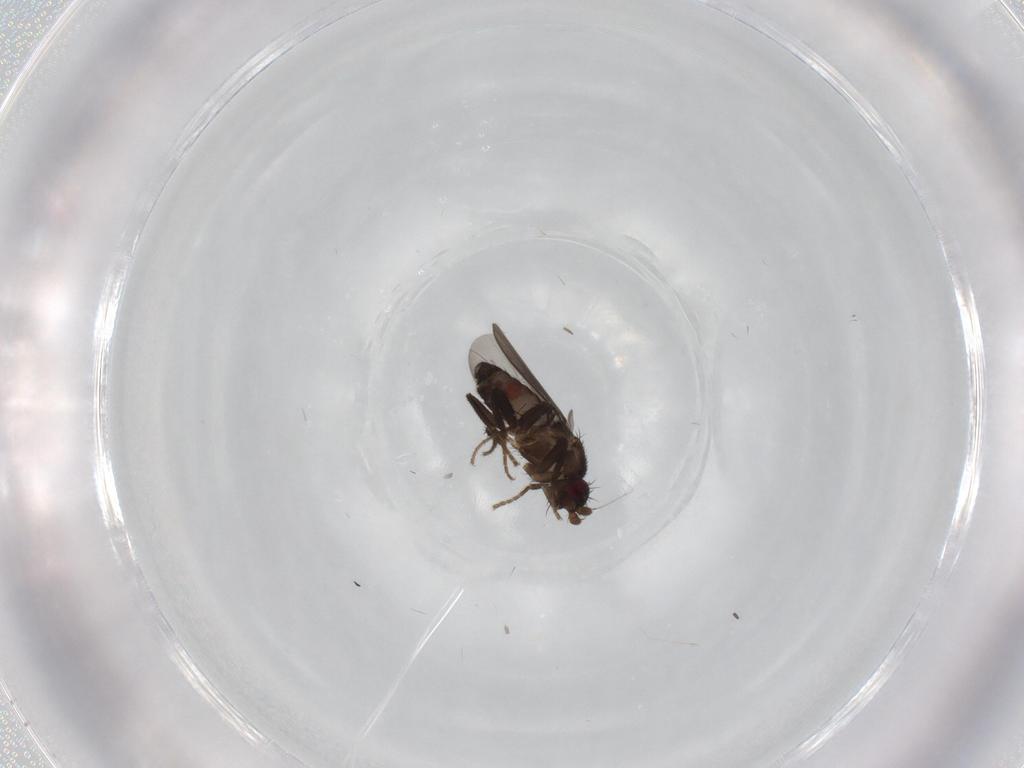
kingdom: Animalia
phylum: Arthropoda
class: Insecta
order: Diptera
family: Sphaeroceridae
